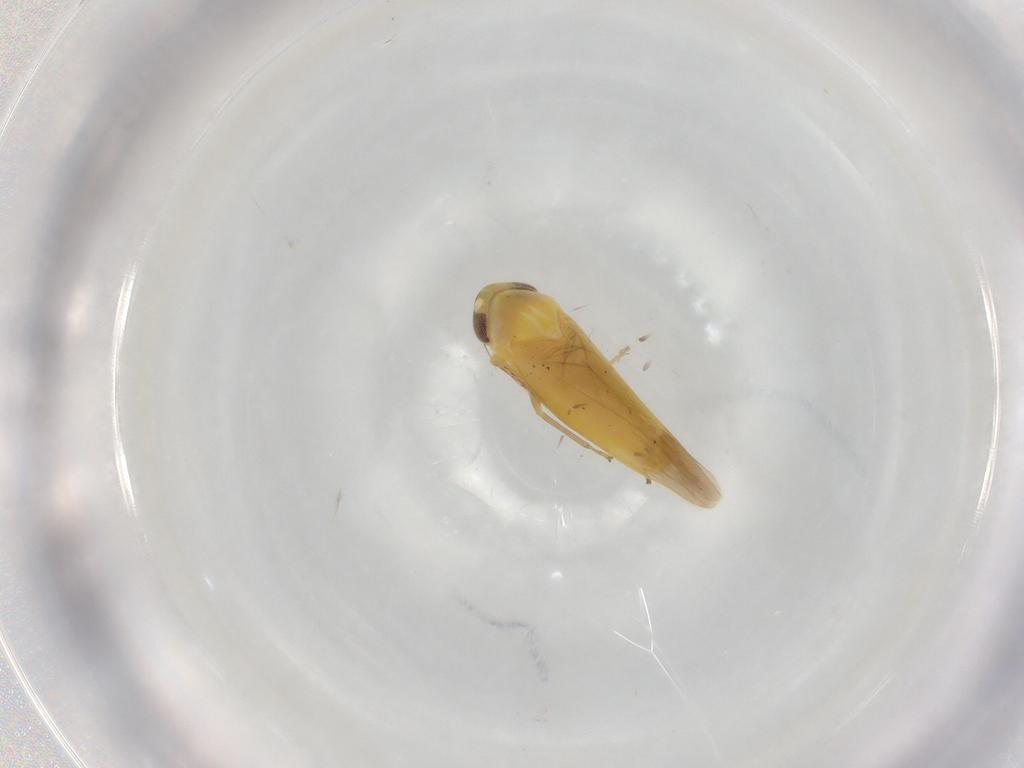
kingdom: Animalia
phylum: Arthropoda
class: Insecta
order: Hemiptera
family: Cicadellidae
